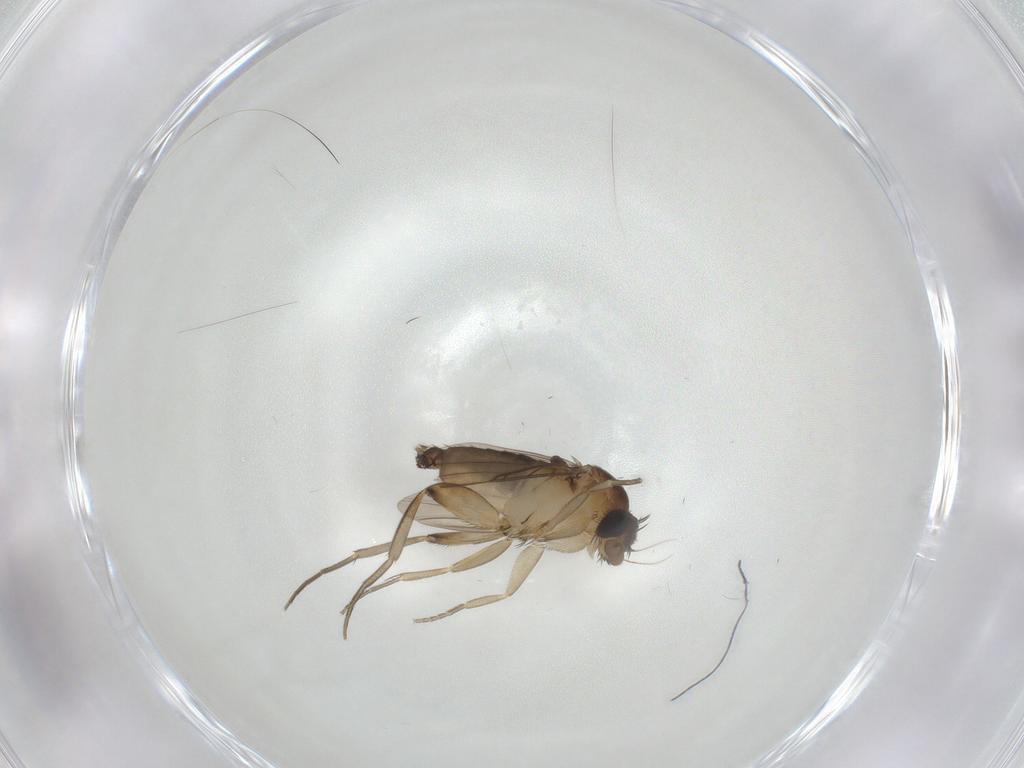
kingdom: Animalia
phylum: Arthropoda
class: Insecta
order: Diptera
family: Phoridae
